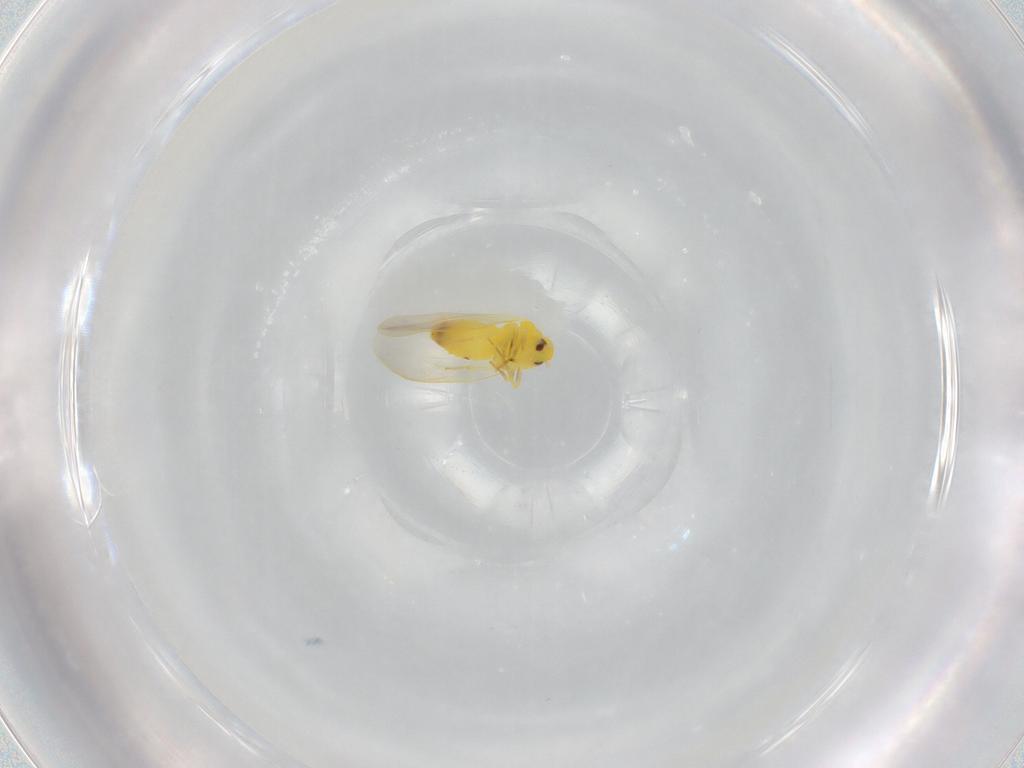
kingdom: Animalia
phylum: Arthropoda
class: Insecta
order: Hemiptera
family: Aleyrodidae
